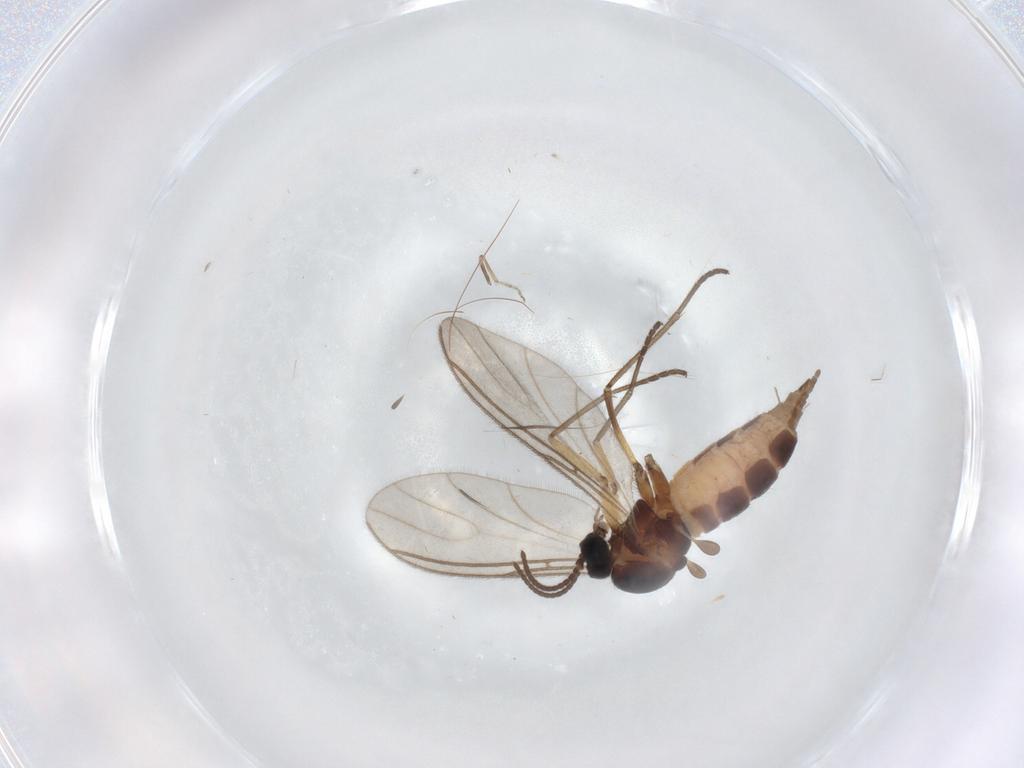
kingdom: Animalia
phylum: Arthropoda
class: Insecta
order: Diptera
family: Sciaridae
